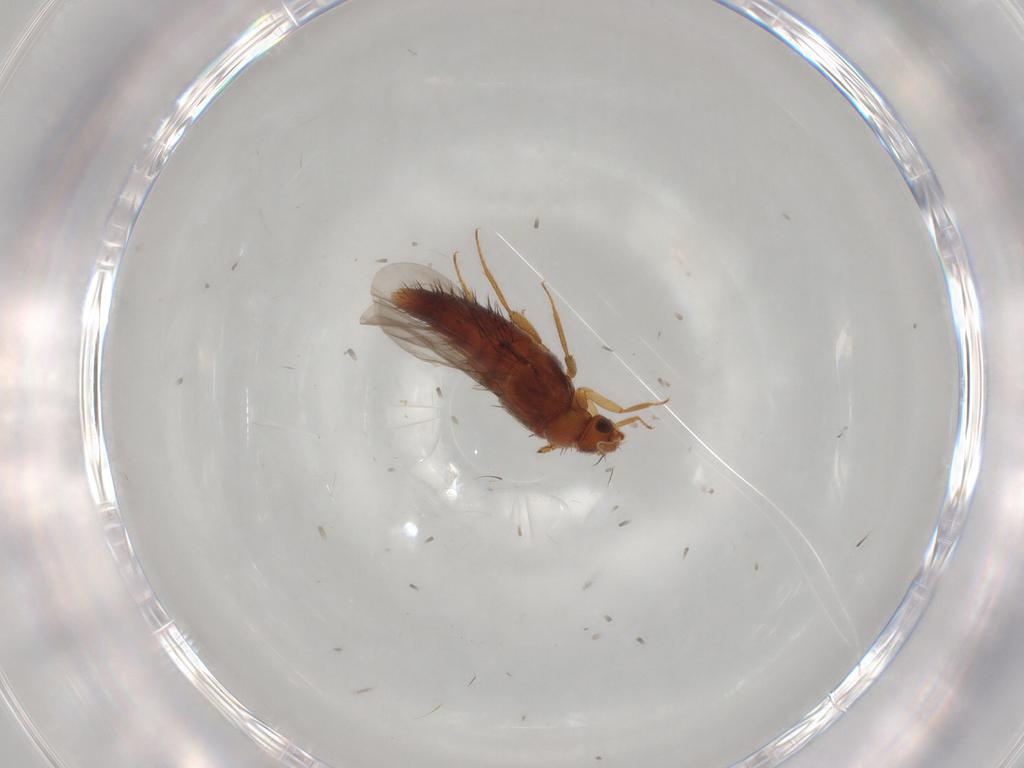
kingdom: Animalia
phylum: Arthropoda
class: Insecta
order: Coleoptera
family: Staphylinidae
